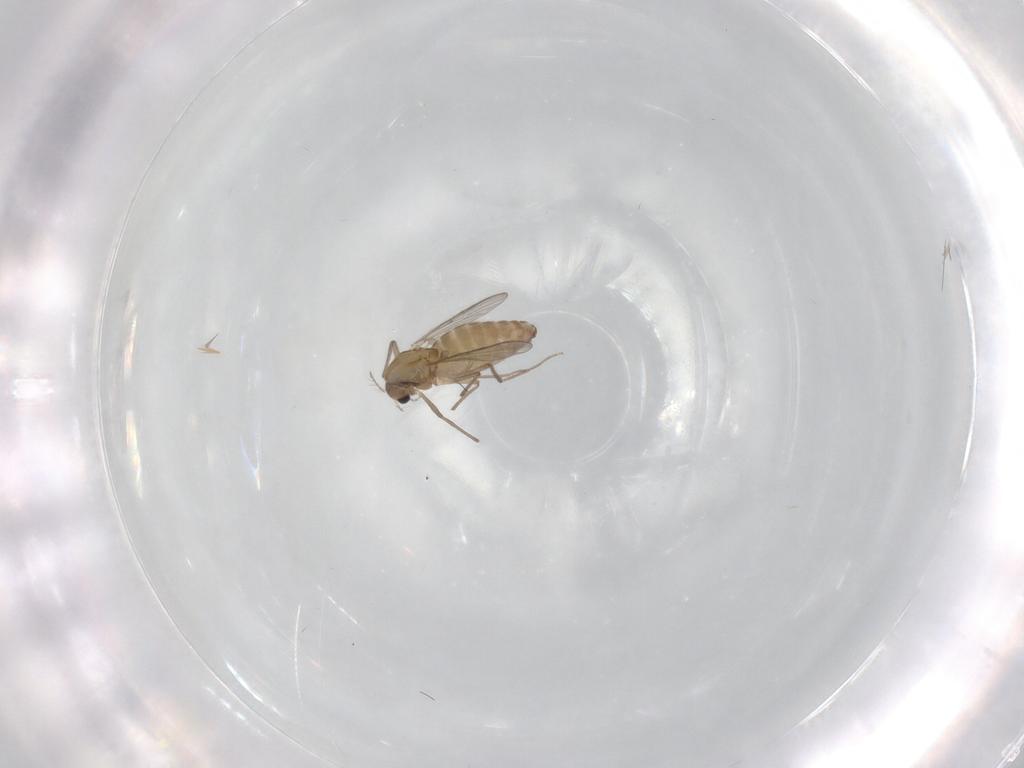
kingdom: Animalia
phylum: Arthropoda
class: Insecta
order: Diptera
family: Chironomidae
